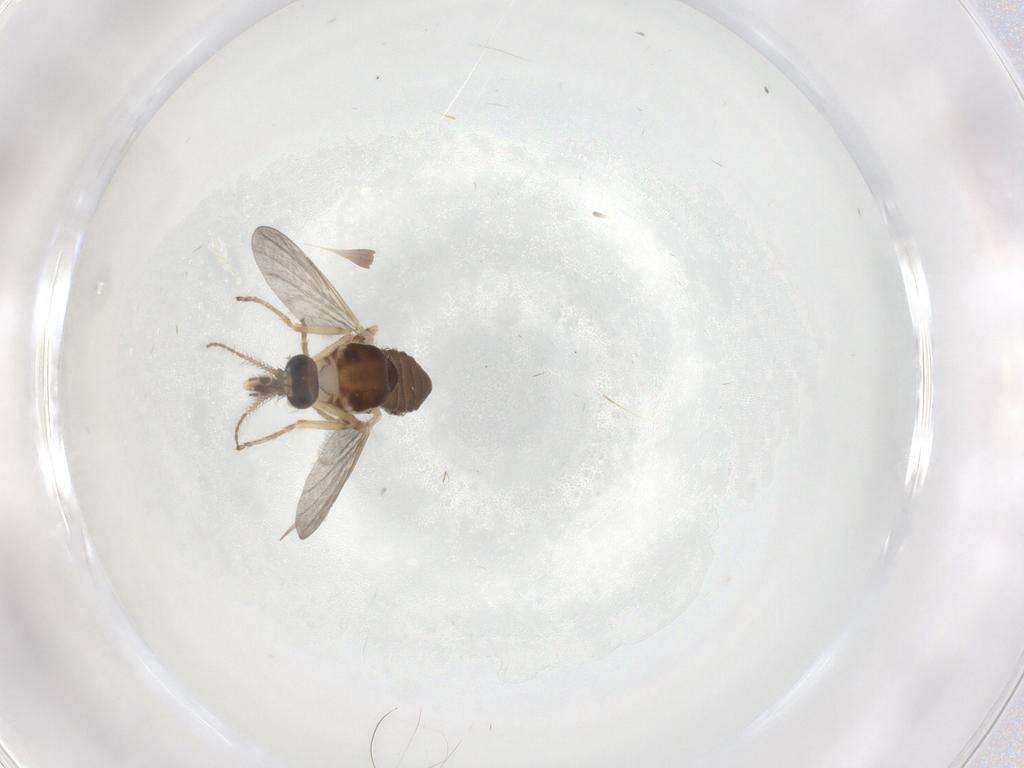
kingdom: Animalia
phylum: Arthropoda
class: Insecta
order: Diptera
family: Ceratopogonidae
